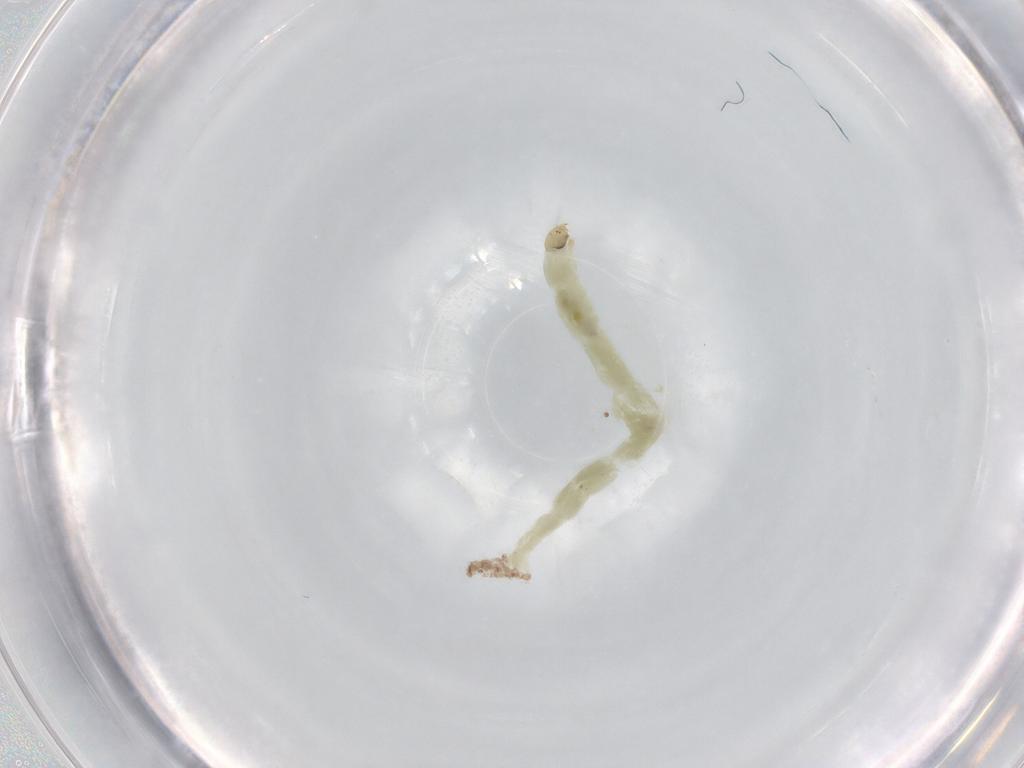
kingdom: Animalia
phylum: Arthropoda
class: Insecta
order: Diptera
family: Chironomidae
